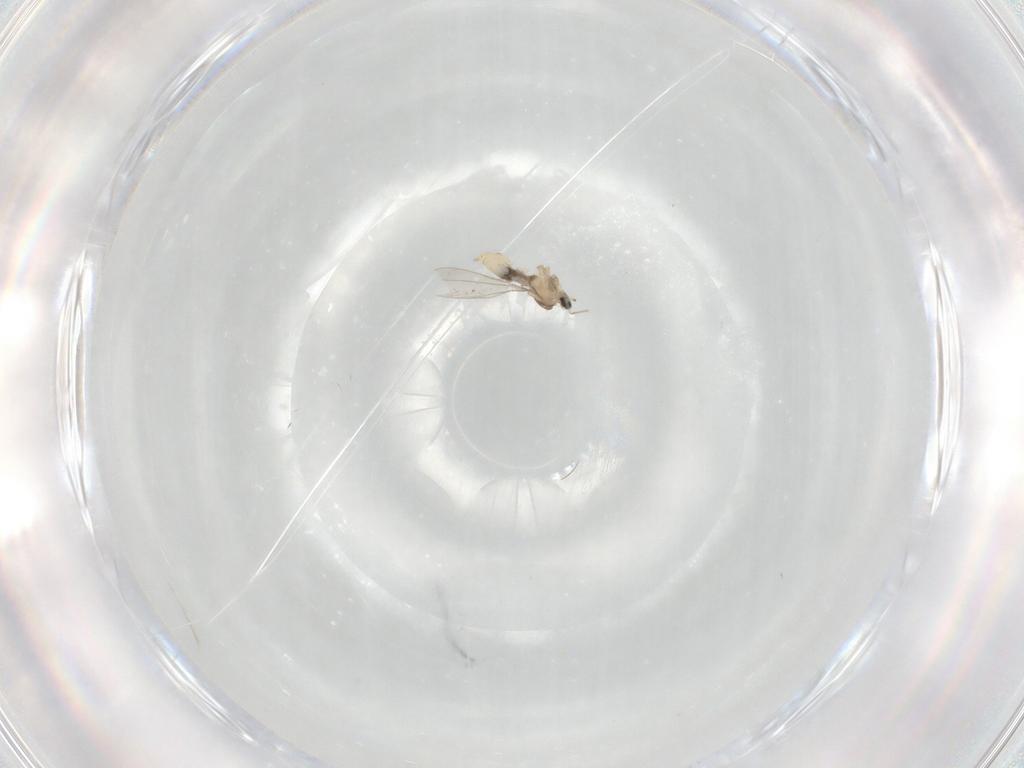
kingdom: Animalia
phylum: Arthropoda
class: Insecta
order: Diptera
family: Cecidomyiidae
